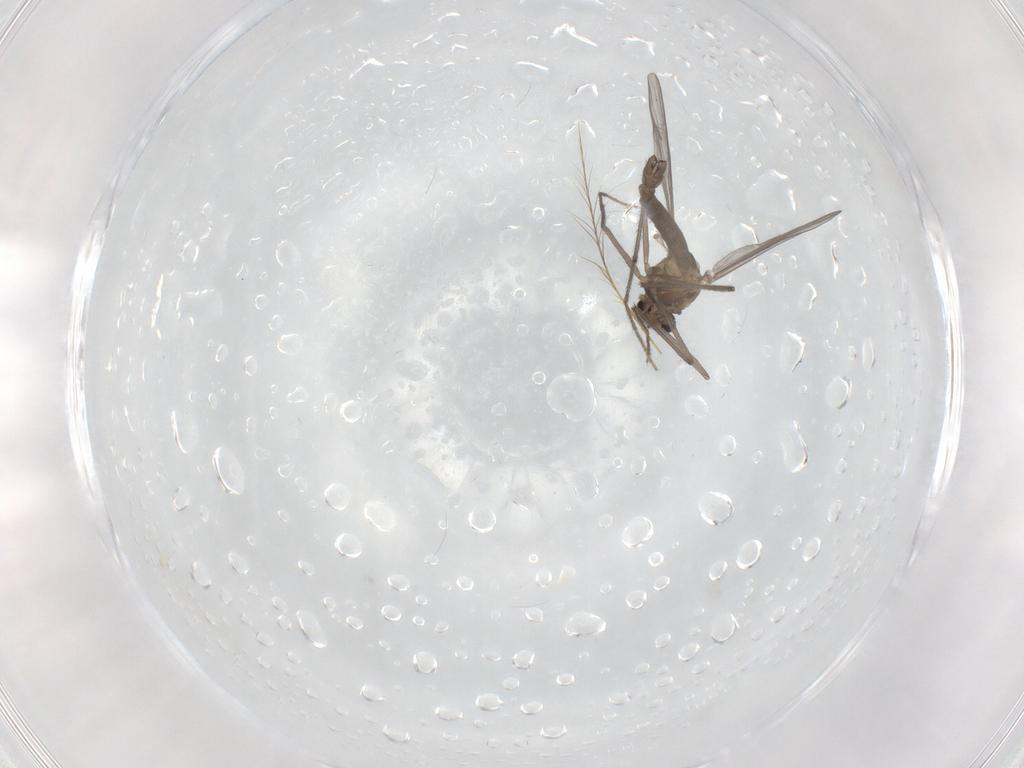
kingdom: Animalia
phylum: Arthropoda
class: Insecta
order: Diptera
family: Chironomidae
